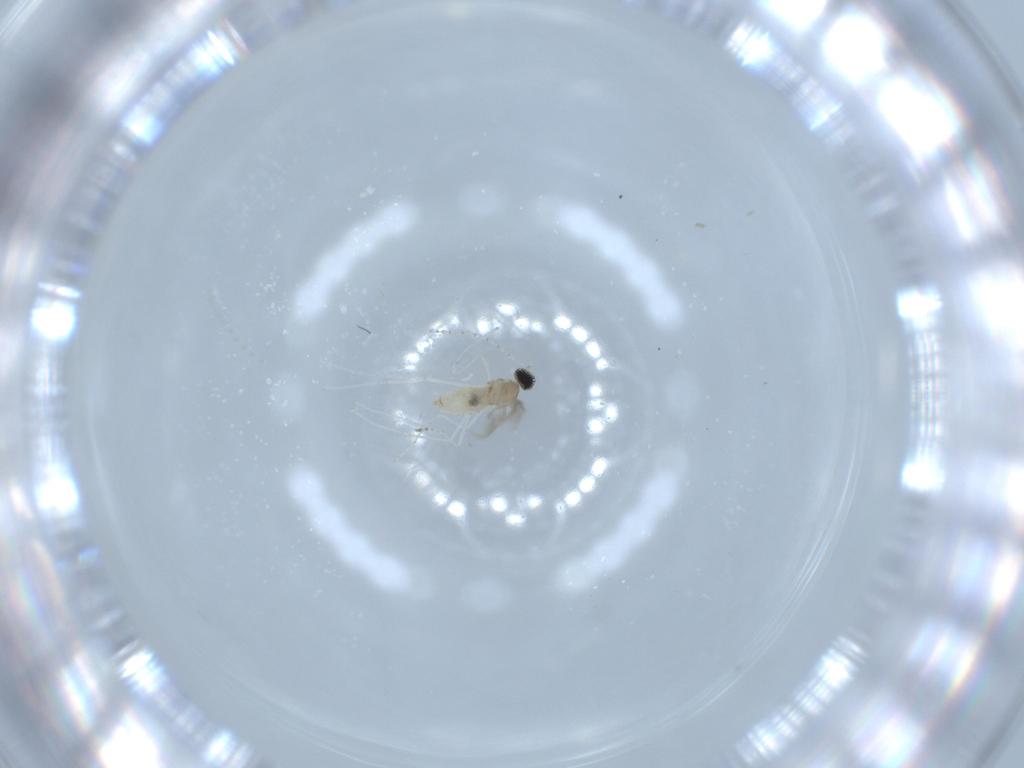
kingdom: Animalia
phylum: Arthropoda
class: Insecta
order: Diptera
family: Cecidomyiidae
